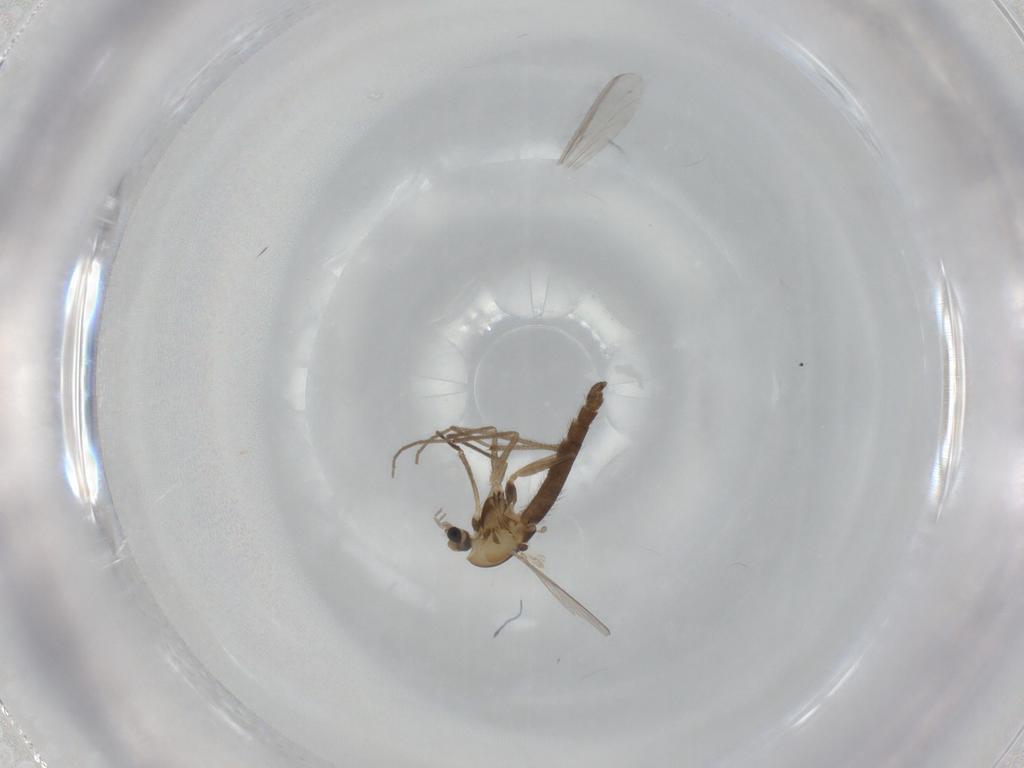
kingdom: Animalia
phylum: Arthropoda
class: Insecta
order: Diptera
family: Chironomidae
